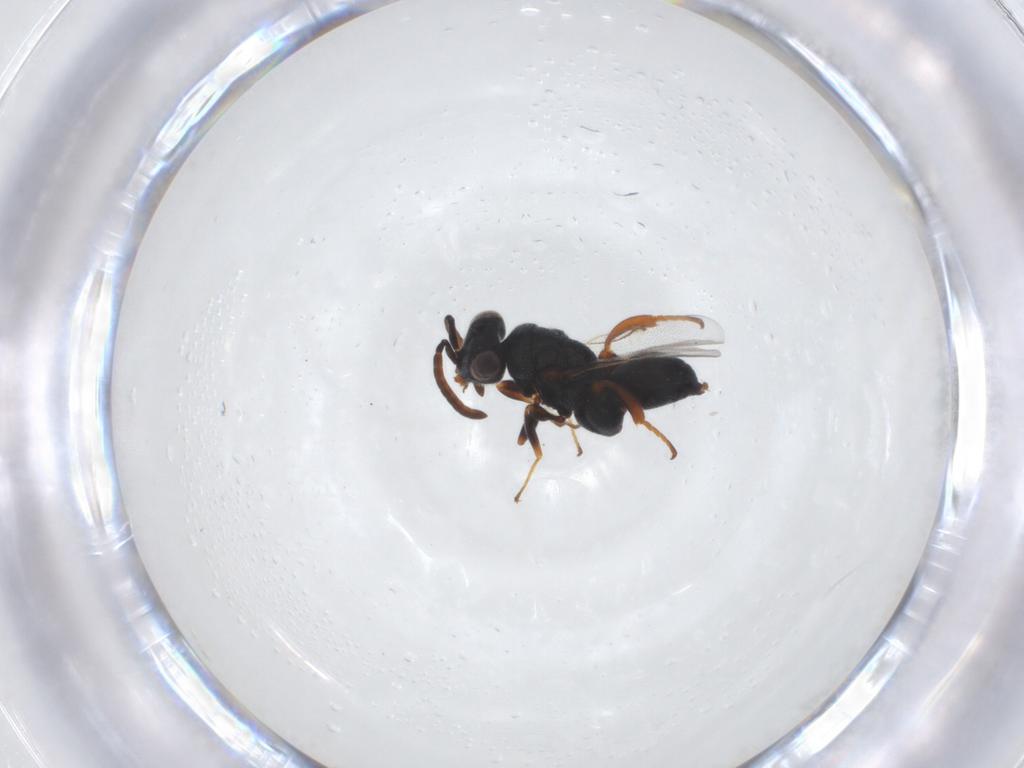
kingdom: Animalia
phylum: Arthropoda
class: Insecta
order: Hymenoptera
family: Chalcididae
